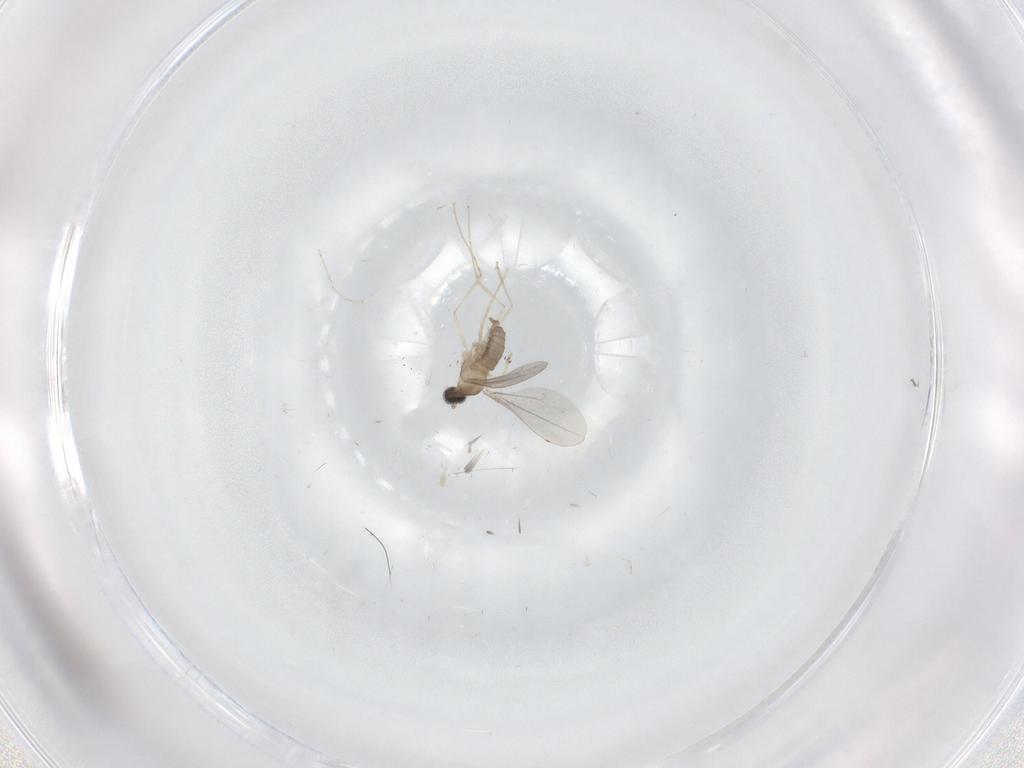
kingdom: Animalia
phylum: Arthropoda
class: Insecta
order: Diptera
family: Cecidomyiidae
